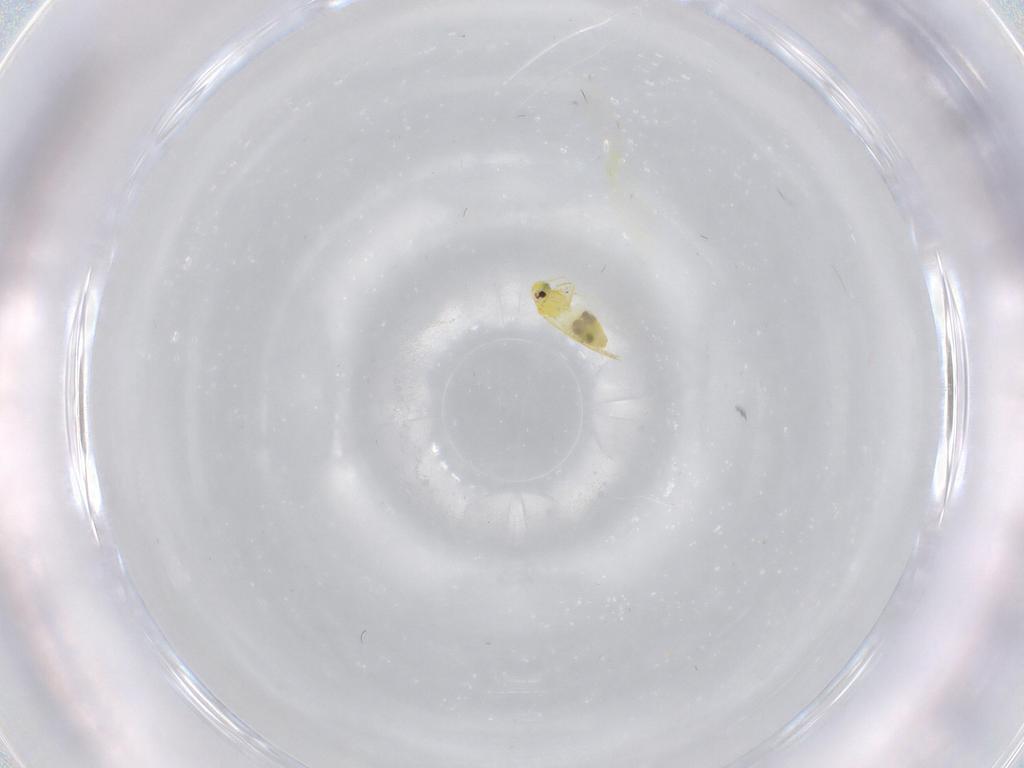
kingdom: Animalia
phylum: Arthropoda
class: Insecta
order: Hemiptera
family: Aleyrodidae
